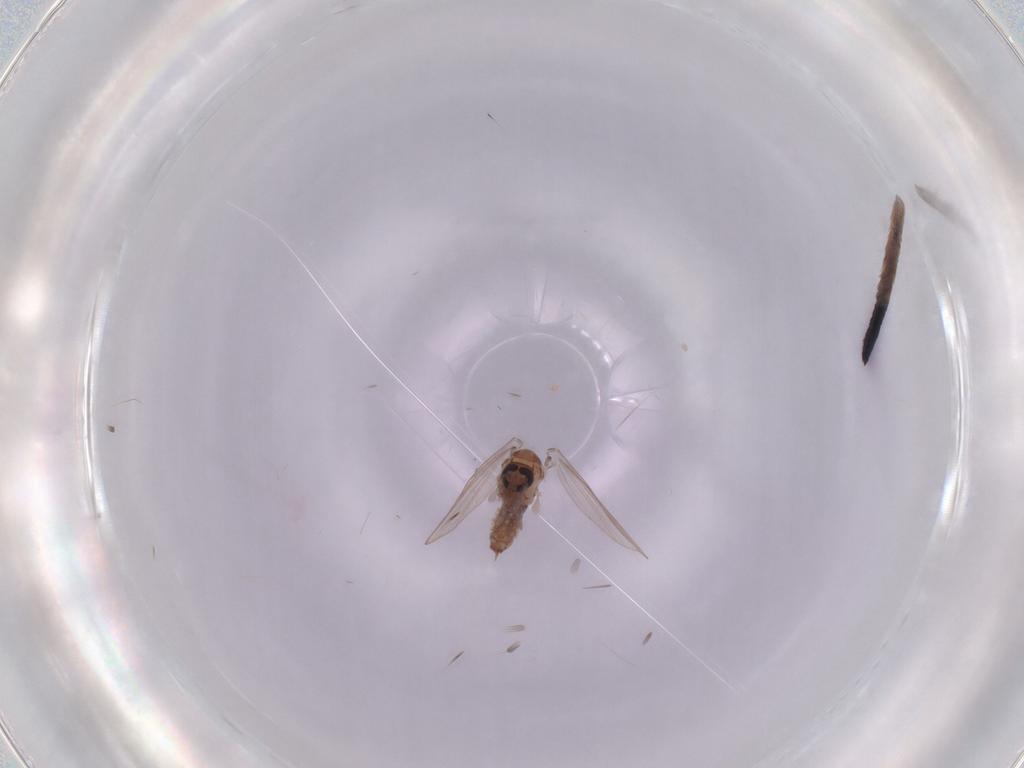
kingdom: Animalia
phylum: Arthropoda
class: Insecta
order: Diptera
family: Psychodidae
